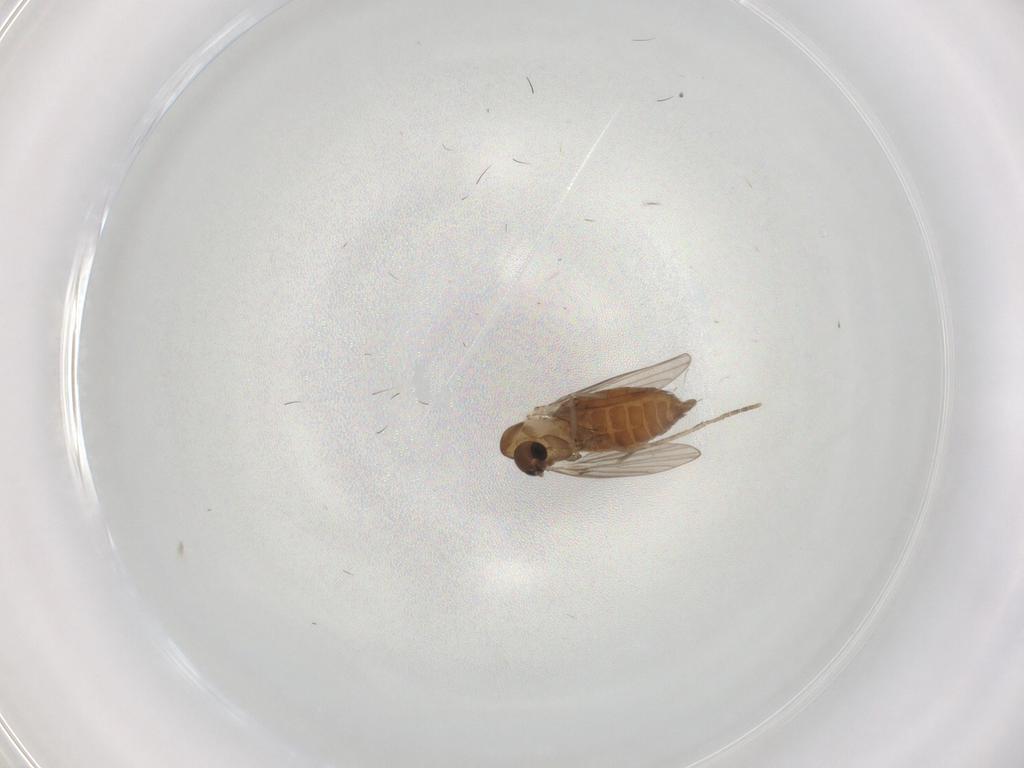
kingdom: Animalia
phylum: Arthropoda
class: Insecta
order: Diptera
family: Psychodidae
